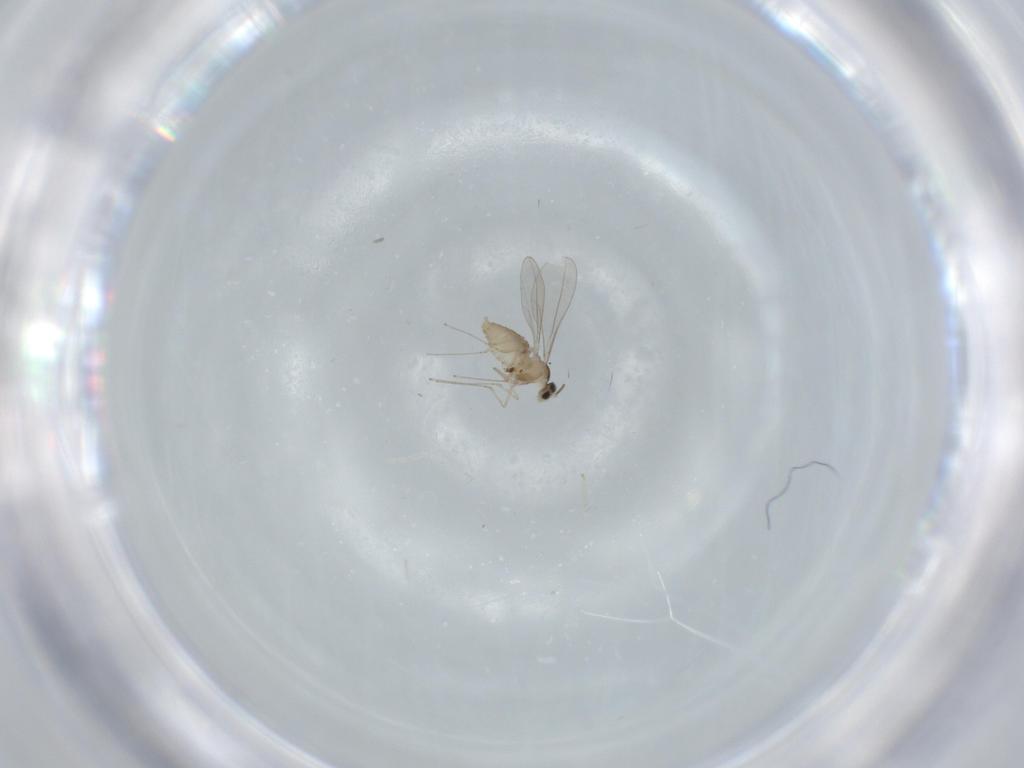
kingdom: Animalia
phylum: Arthropoda
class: Insecta
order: Diptera
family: Cecidomyiidae
